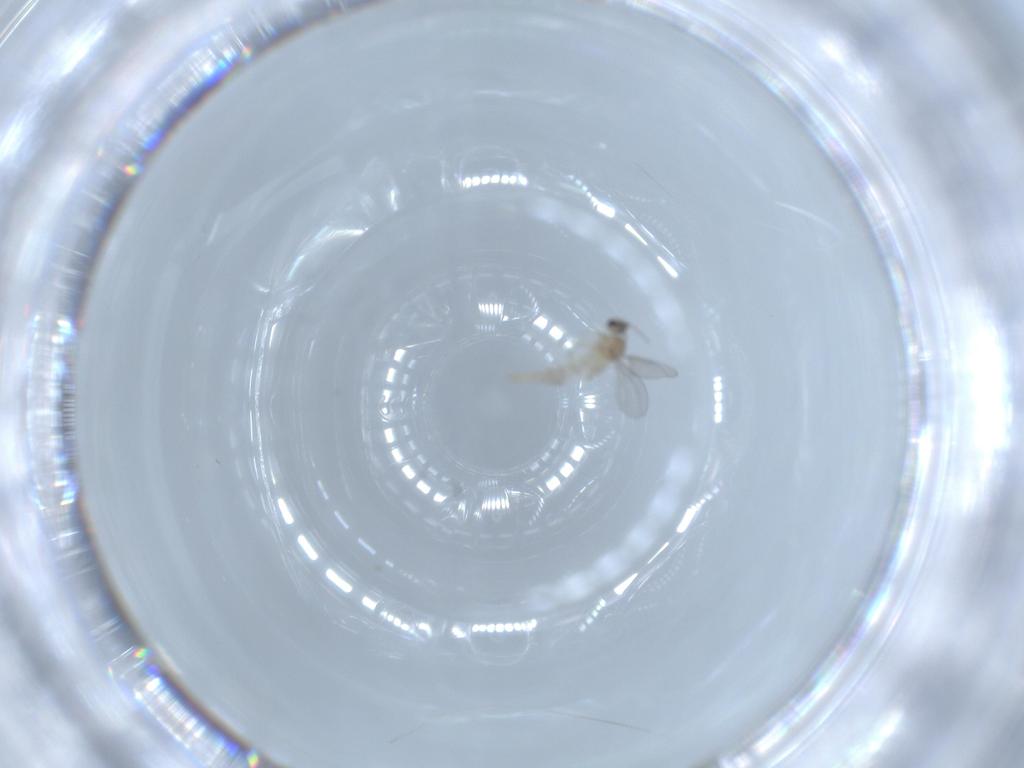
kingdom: Animalia
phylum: Arthropoda
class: Insecta
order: Diptera
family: Cecidomyiidae
